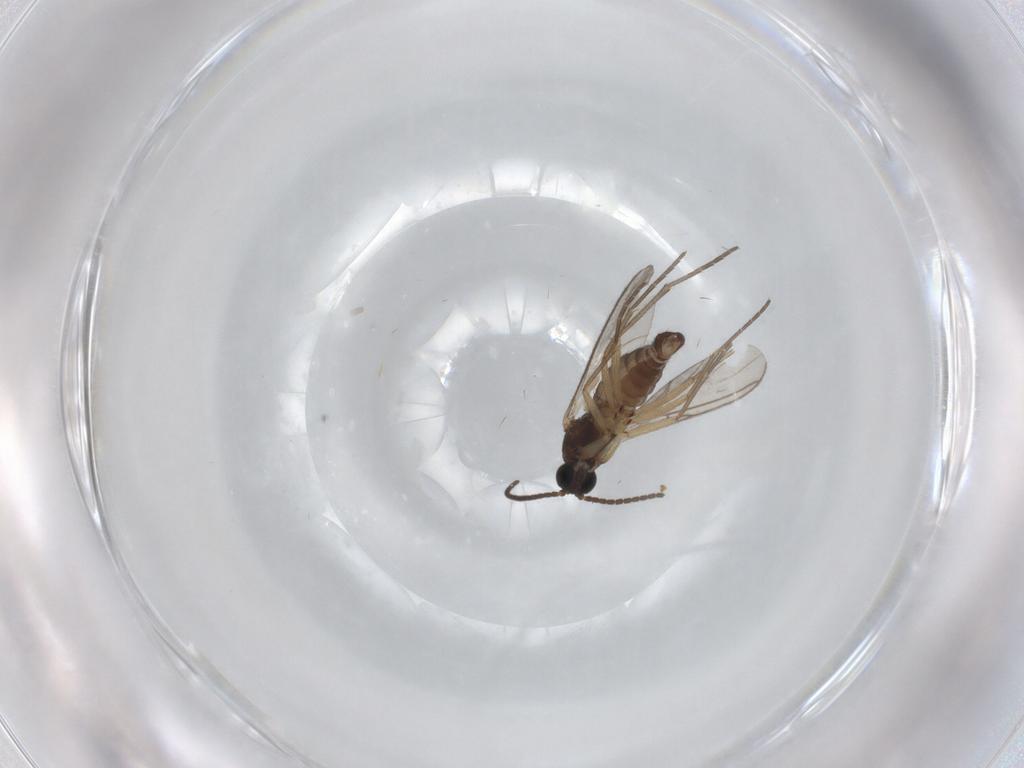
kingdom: Animalia
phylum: Arthropoda
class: Insecta
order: Diptera
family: Sciaridae
